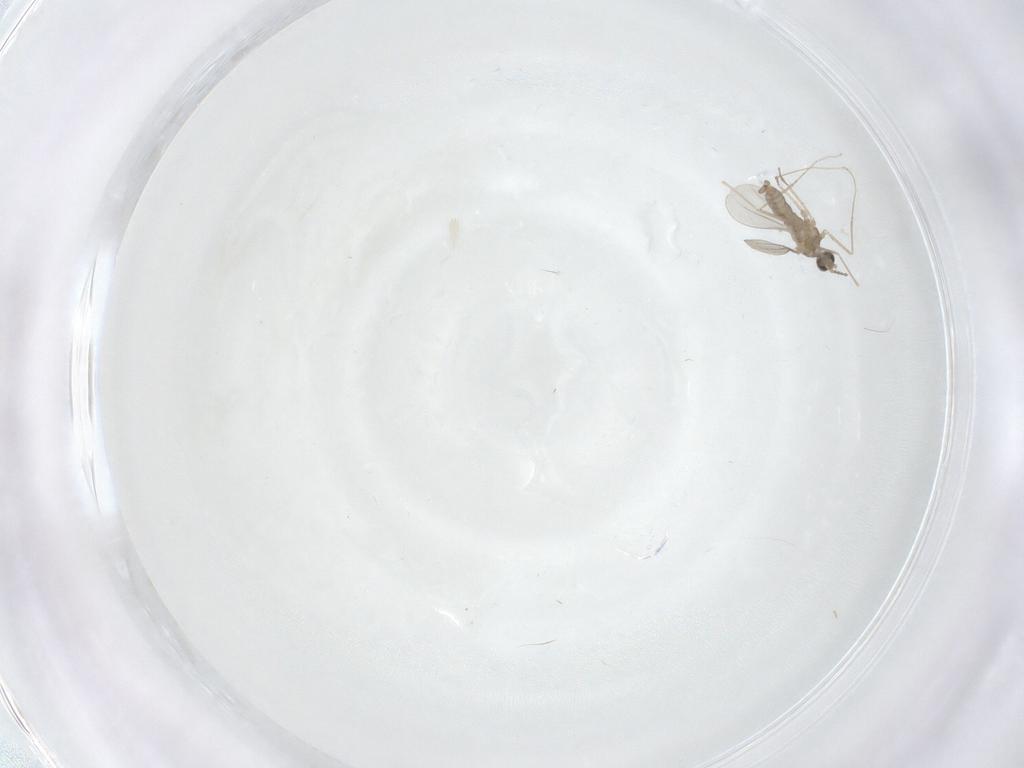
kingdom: Animalia
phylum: Arthropoda
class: Insecta
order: Diptera
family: Cecidomyiidae
